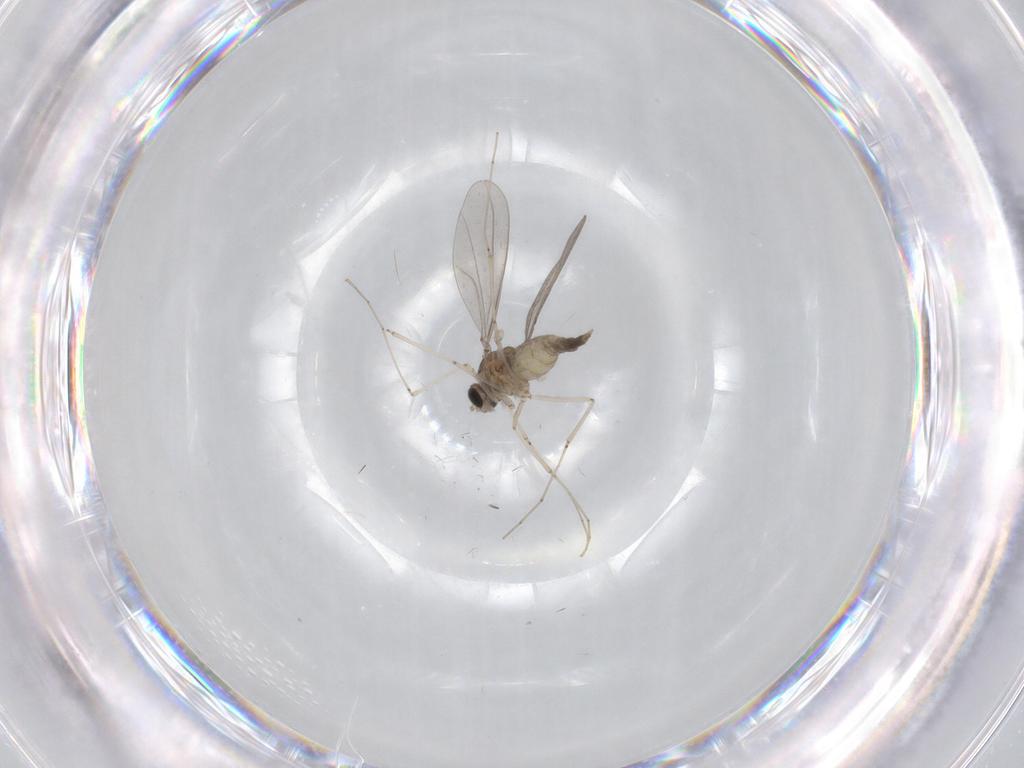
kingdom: Animalia
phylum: Arthropoda
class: Insecta
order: Diptera
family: Cecidomyiidae
